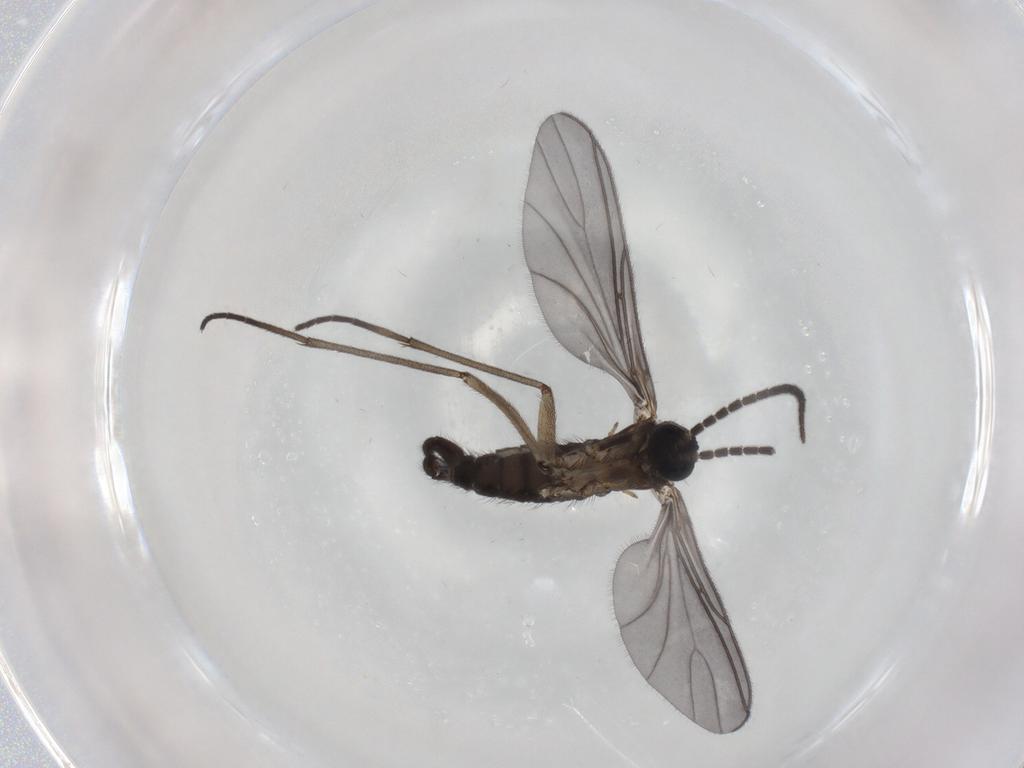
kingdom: Animalia
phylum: Arthropoda
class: Insecta
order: Diptera
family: Sciaridae
